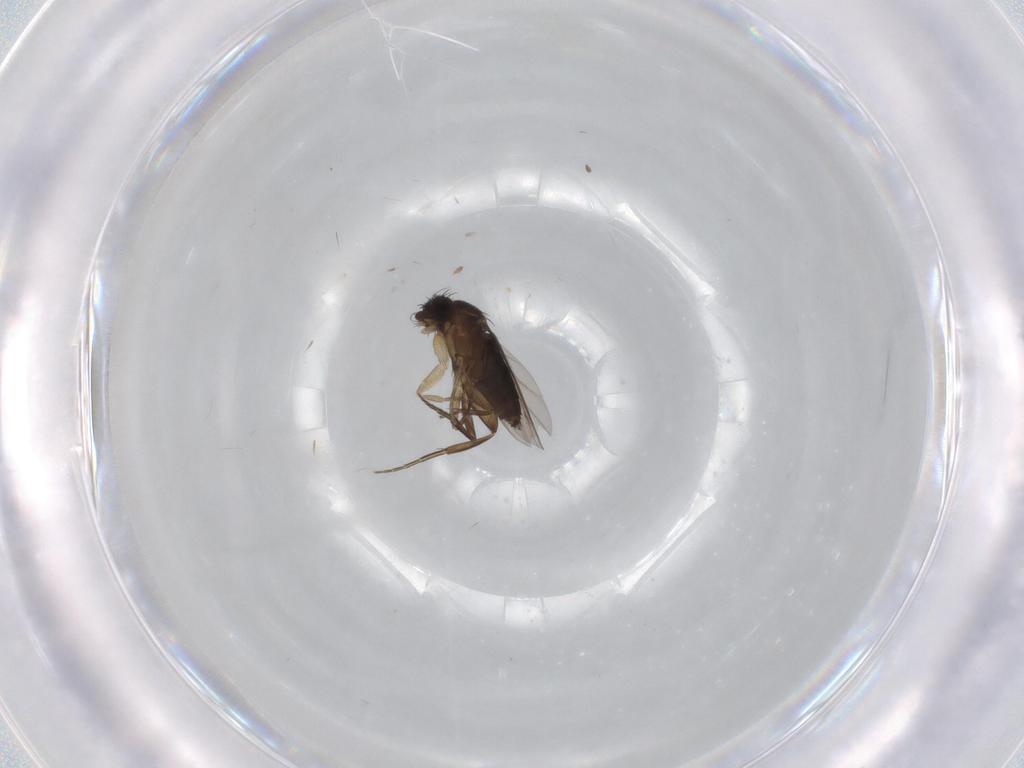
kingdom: Animalia
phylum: Arthropoda
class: Insecta
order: Diptera
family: Phoridae
